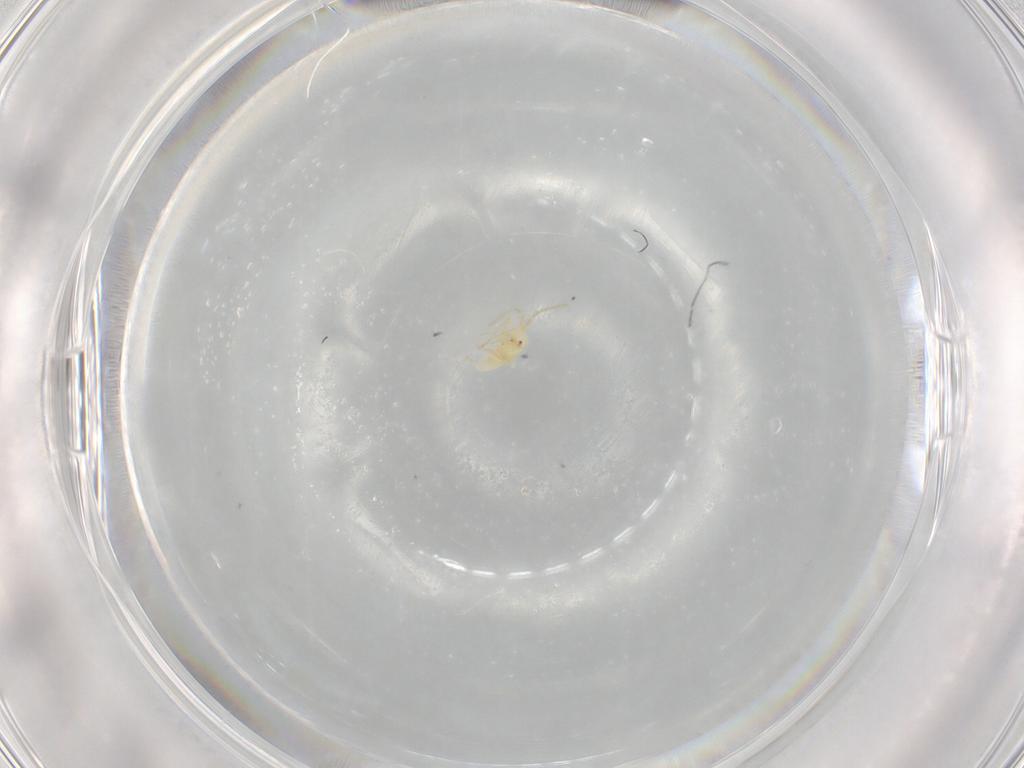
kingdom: Animalia
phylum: Arthropoda
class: Insecta
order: Hemiptera
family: Miridae
